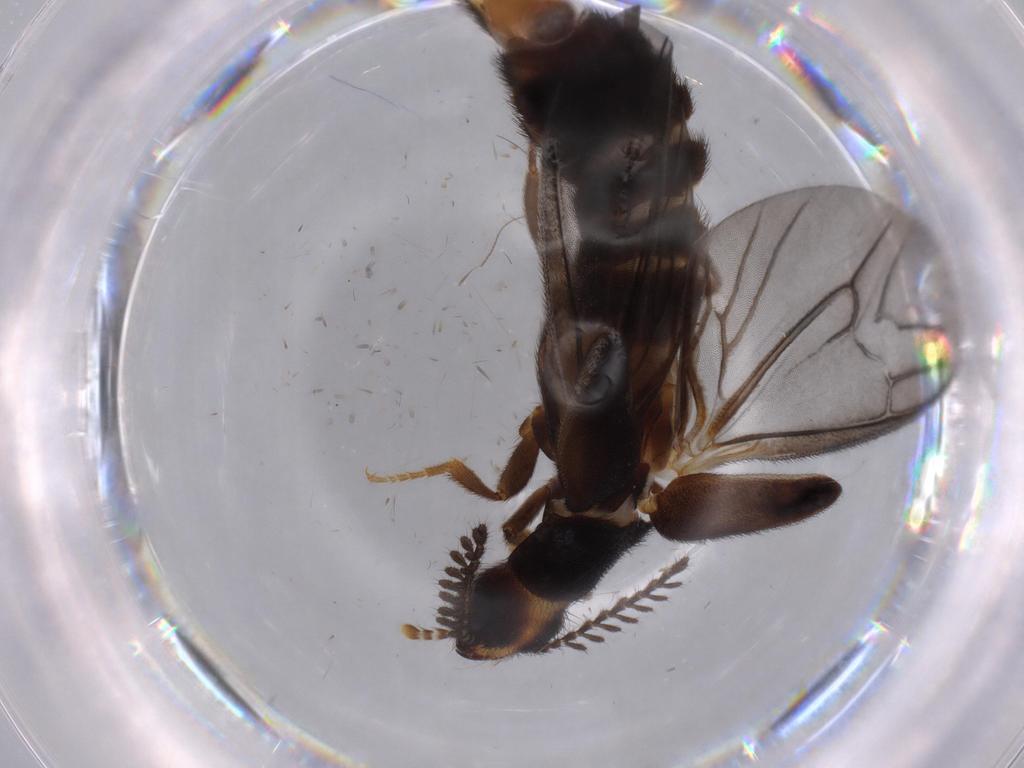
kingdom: Animalia
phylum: Arthropoda
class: Insecta
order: Coleoptera
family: Phengodidae
